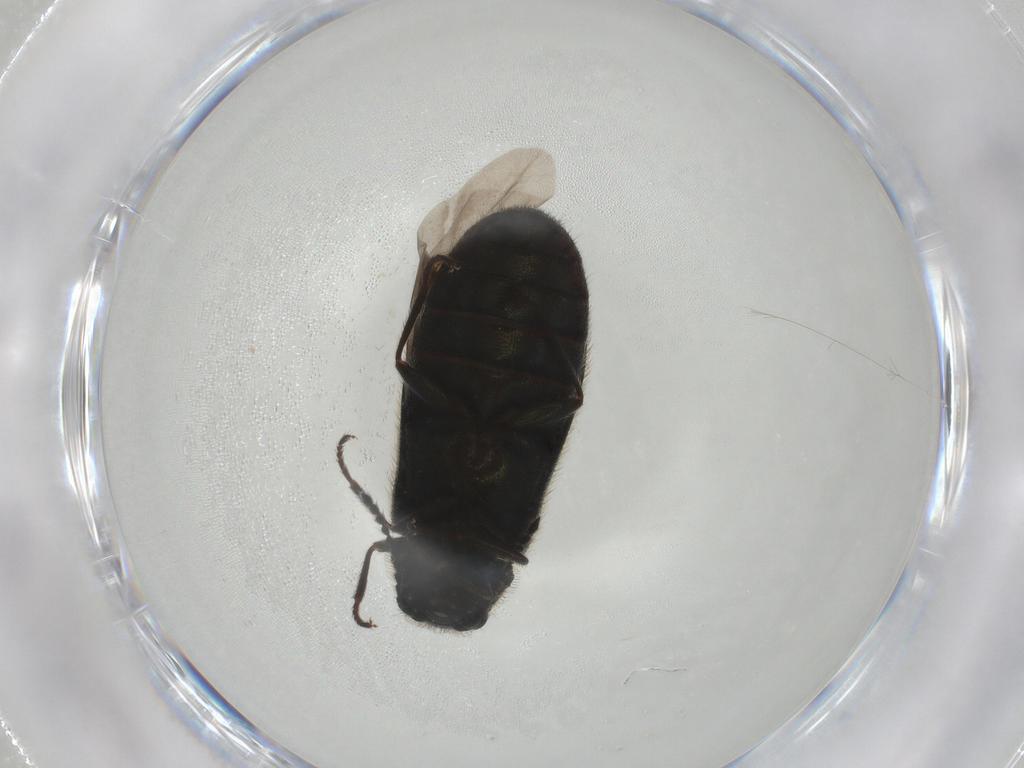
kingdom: Animalia
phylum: Arthropoda
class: Insecta
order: Coleoptera
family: Melyridae
